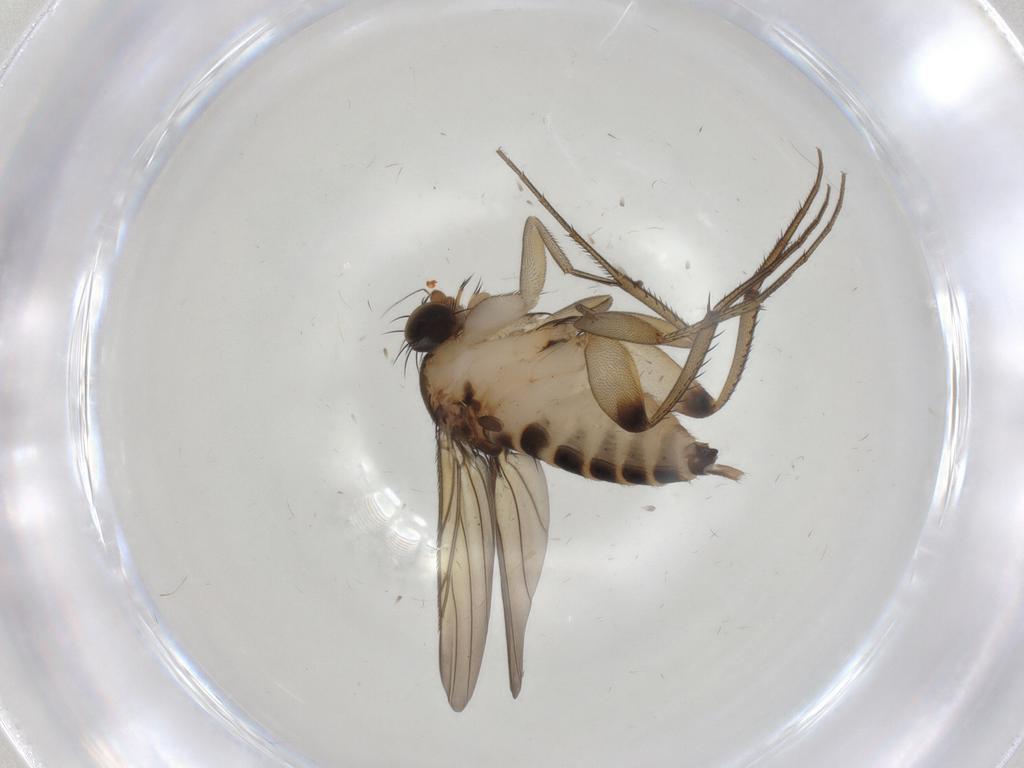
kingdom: Animalia
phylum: Arthropoda
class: Insecta
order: Diptera
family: Phoridae
